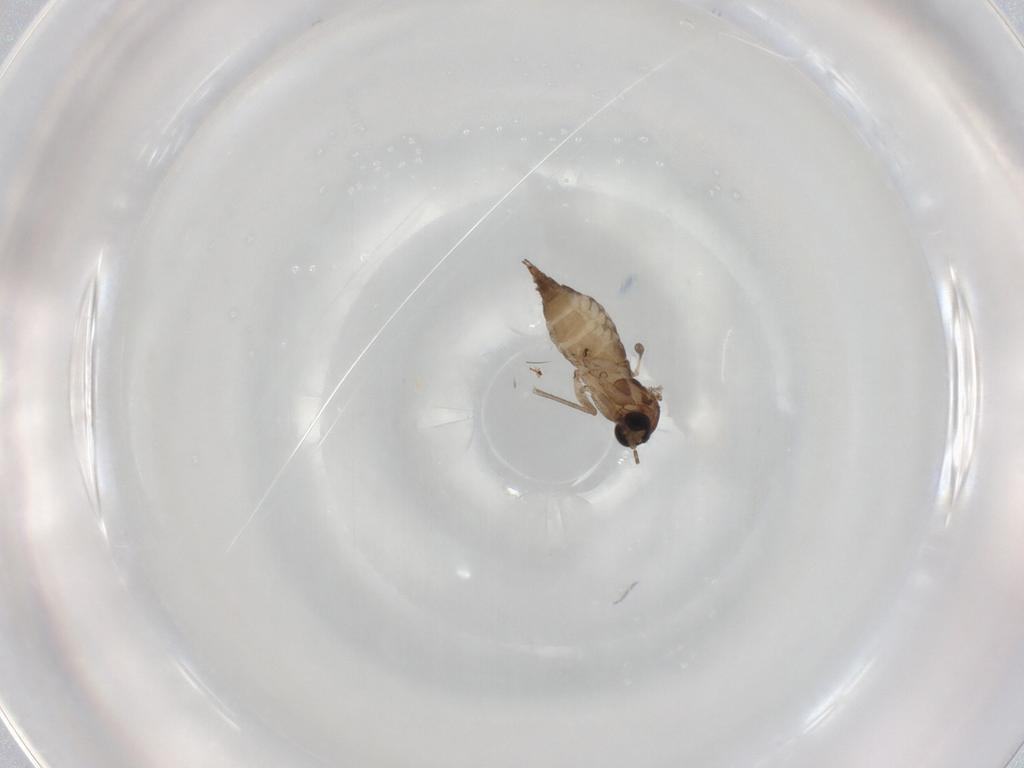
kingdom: Animalia
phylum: Arthropoda
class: Insecta
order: Diptera
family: Sciaridae
